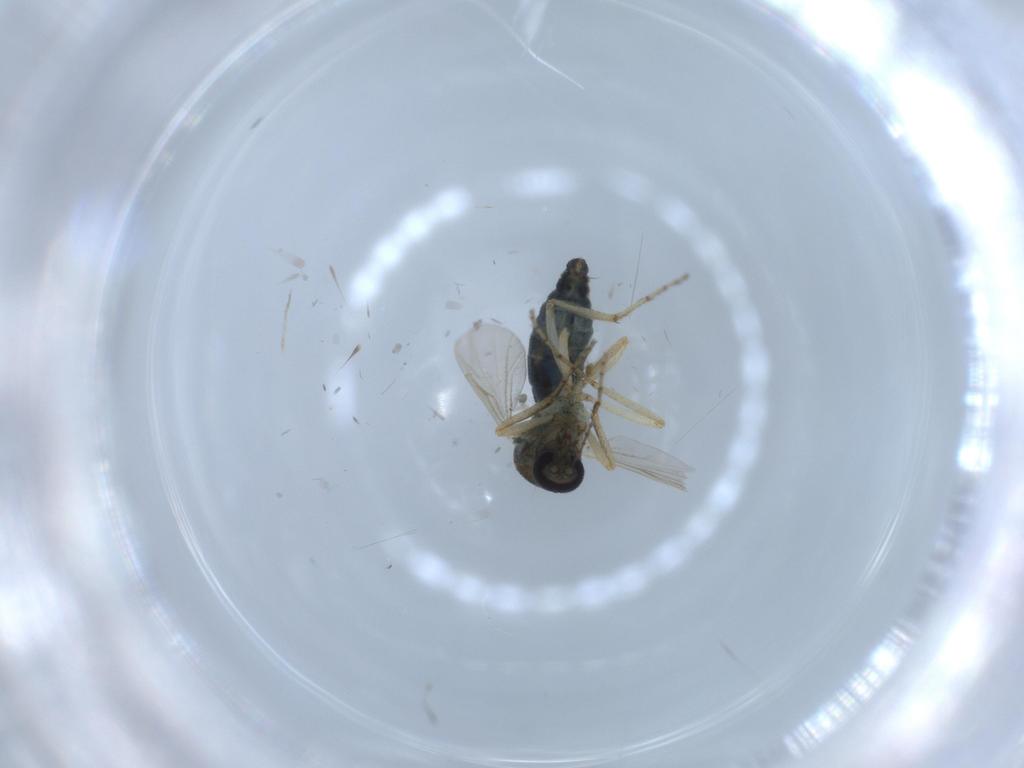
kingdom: Animalia
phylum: Arthropoda
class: Insecta
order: Diptera
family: Ceratopogonidae
